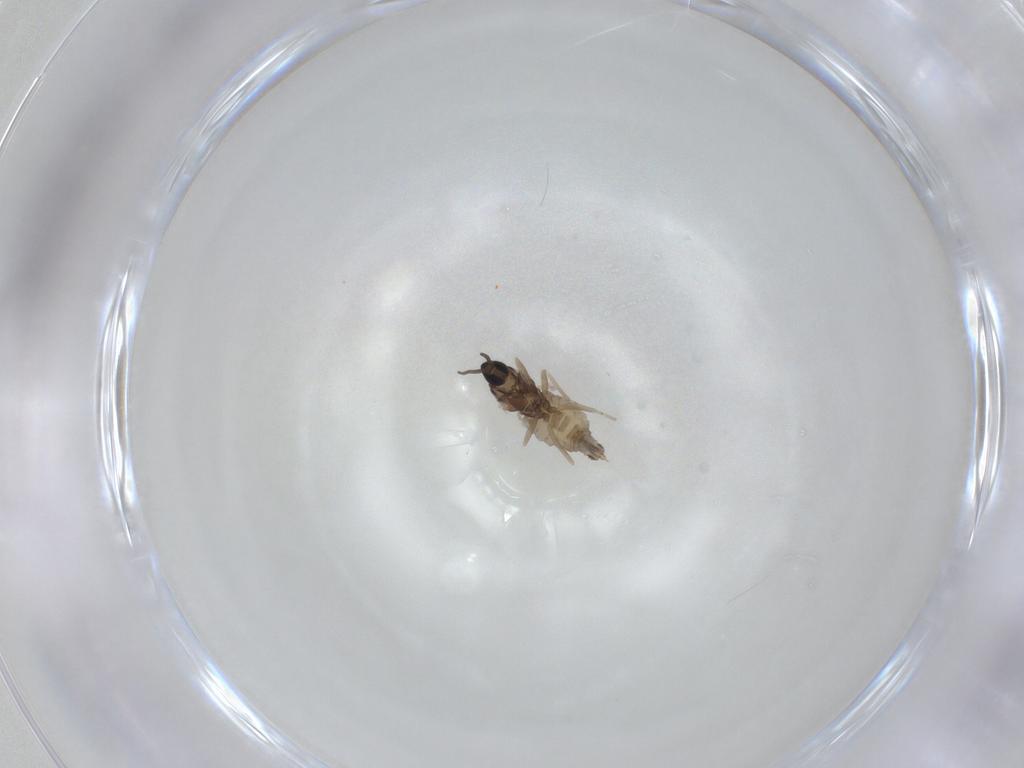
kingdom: Animalia
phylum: Arthropoda
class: Insecta
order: Diptera
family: Cecidomyiidae
